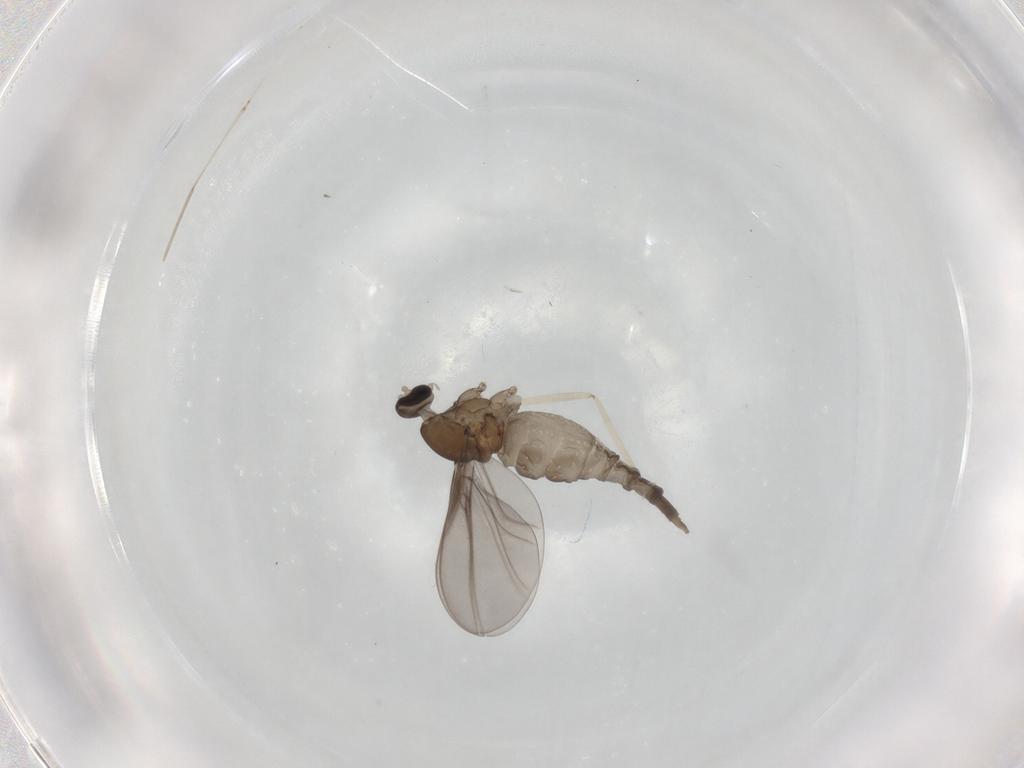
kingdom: Animalia
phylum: Arthropoda
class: Insecta
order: Diptera
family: Cecidomyiidae
